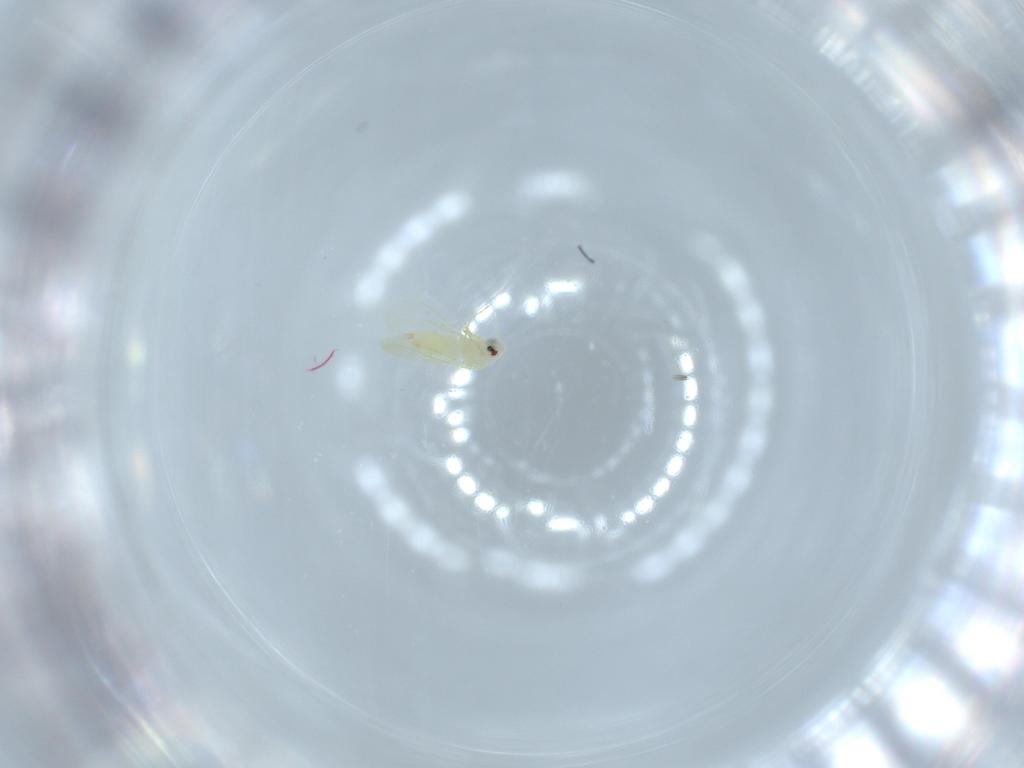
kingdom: Animalia
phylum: Arthropoda
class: Insecta
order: Hemiptera
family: Aleyrodidae
